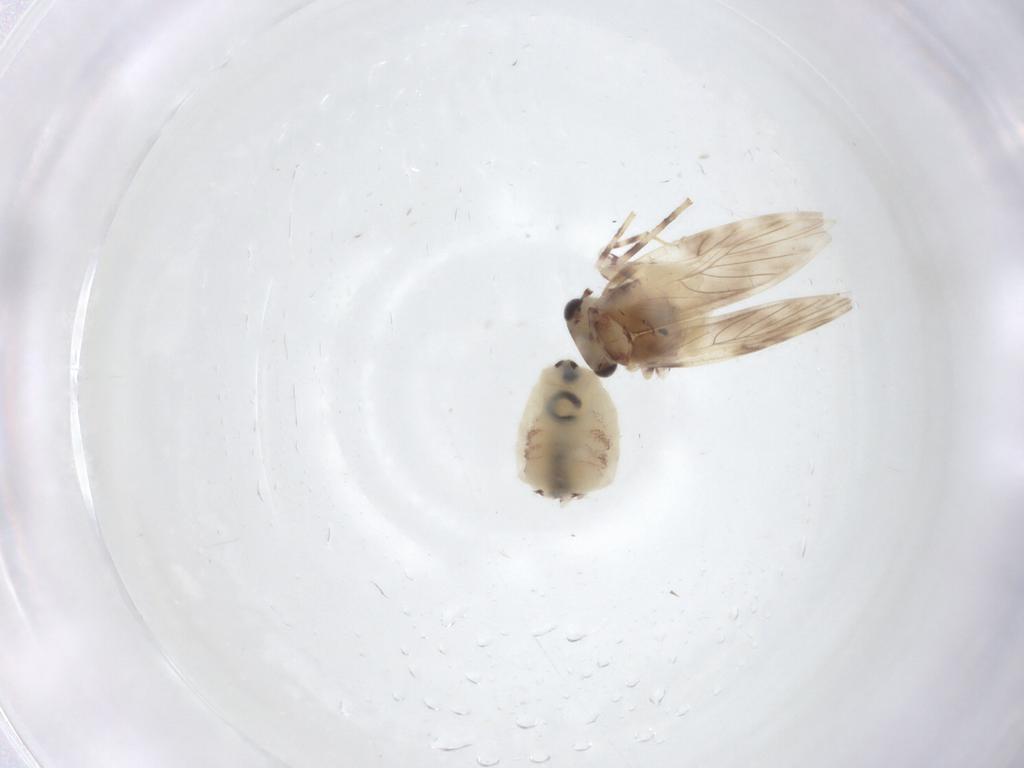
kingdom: Animalia
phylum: Arthropoda
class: Insecta
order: Psocodea
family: Lepidopsocidae
